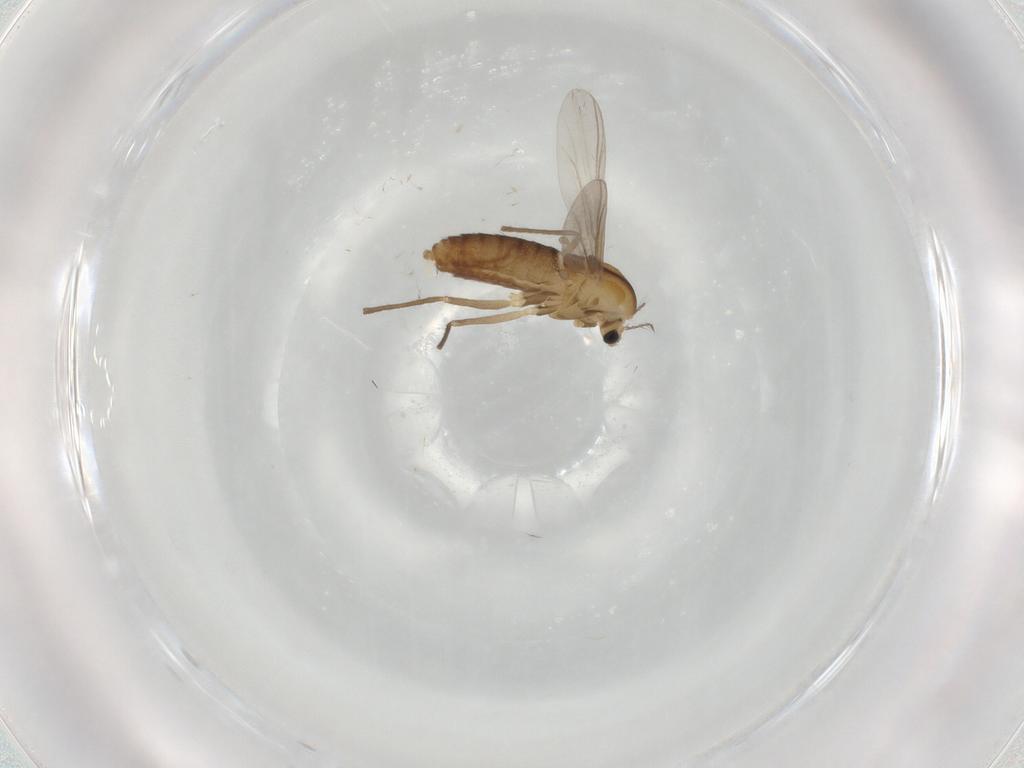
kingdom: Animalia
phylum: Arthropoda
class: Insecta
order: Diptera
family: Chironomidae
